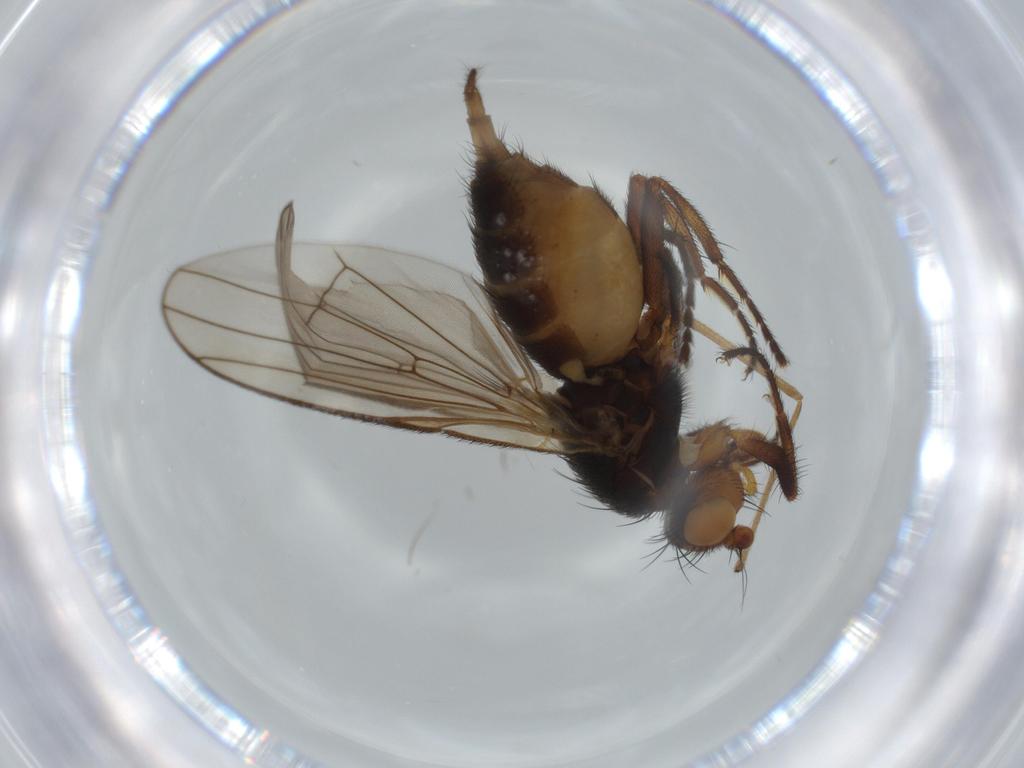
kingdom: Animalia
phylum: Arthropoda
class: Insecta
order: Diptera
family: Heleomyzidae
